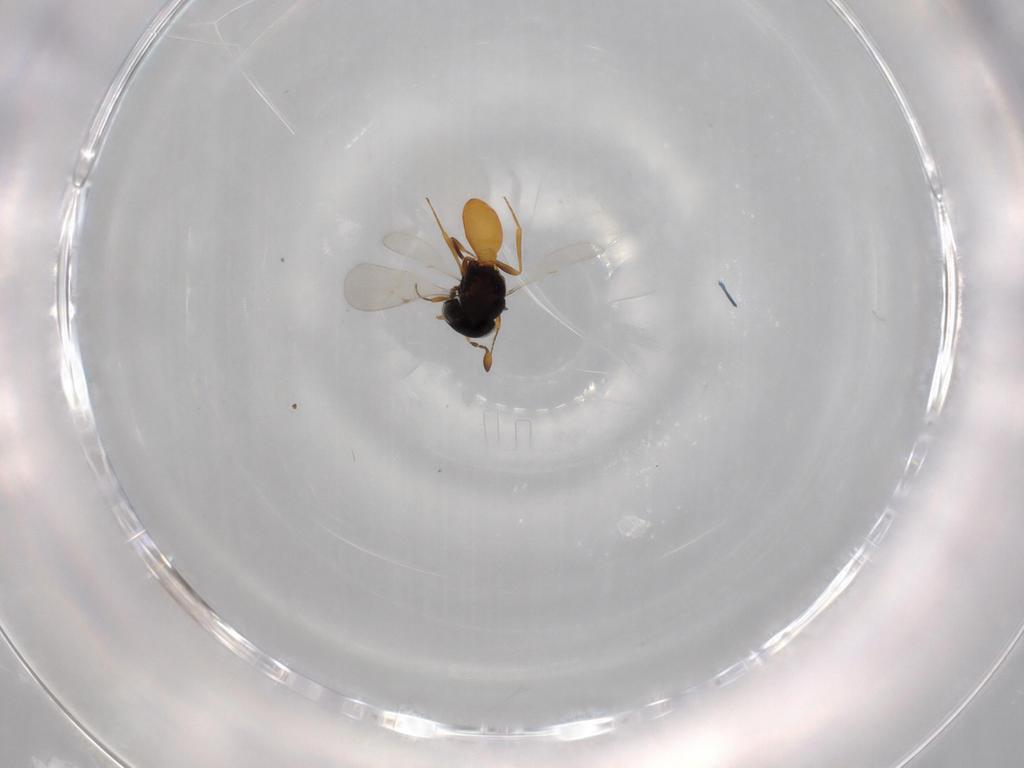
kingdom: Animalia
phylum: Arthropoda
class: Insecta
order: Hymenoptera
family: Scelionidae
